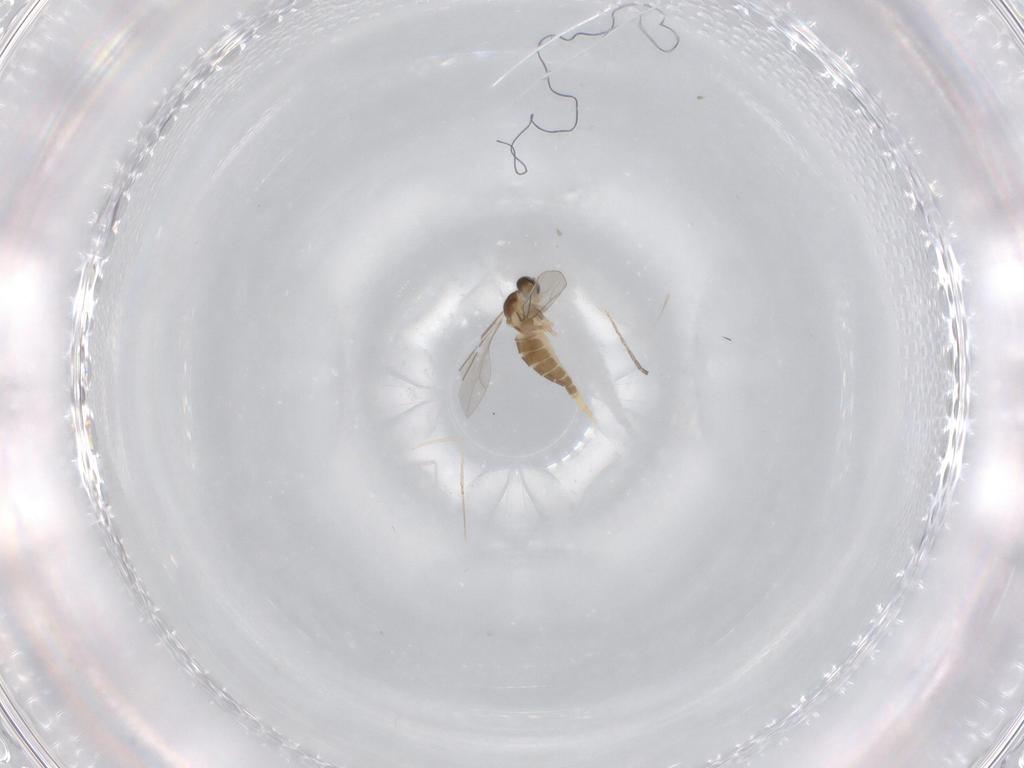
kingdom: Animalia
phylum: Arthropoda
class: Insecta
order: Diptera
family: Cecidomyiidae
